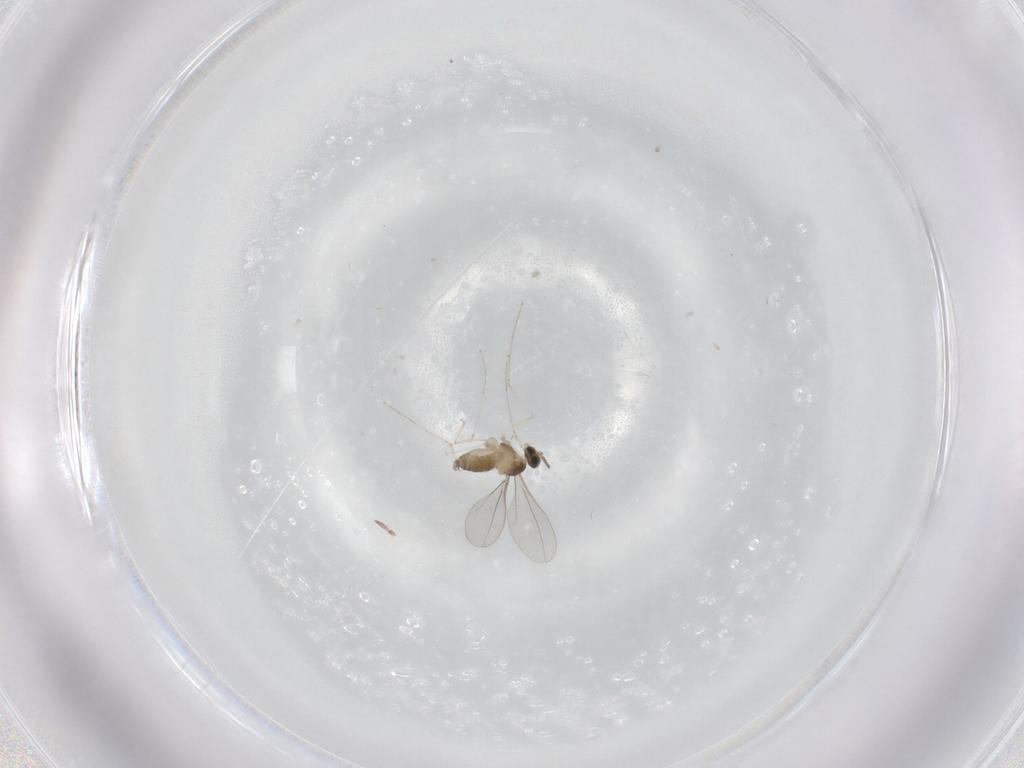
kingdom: Animalia
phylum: Arthropoda
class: Insecta
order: Diptera
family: Cecidomyiidae
